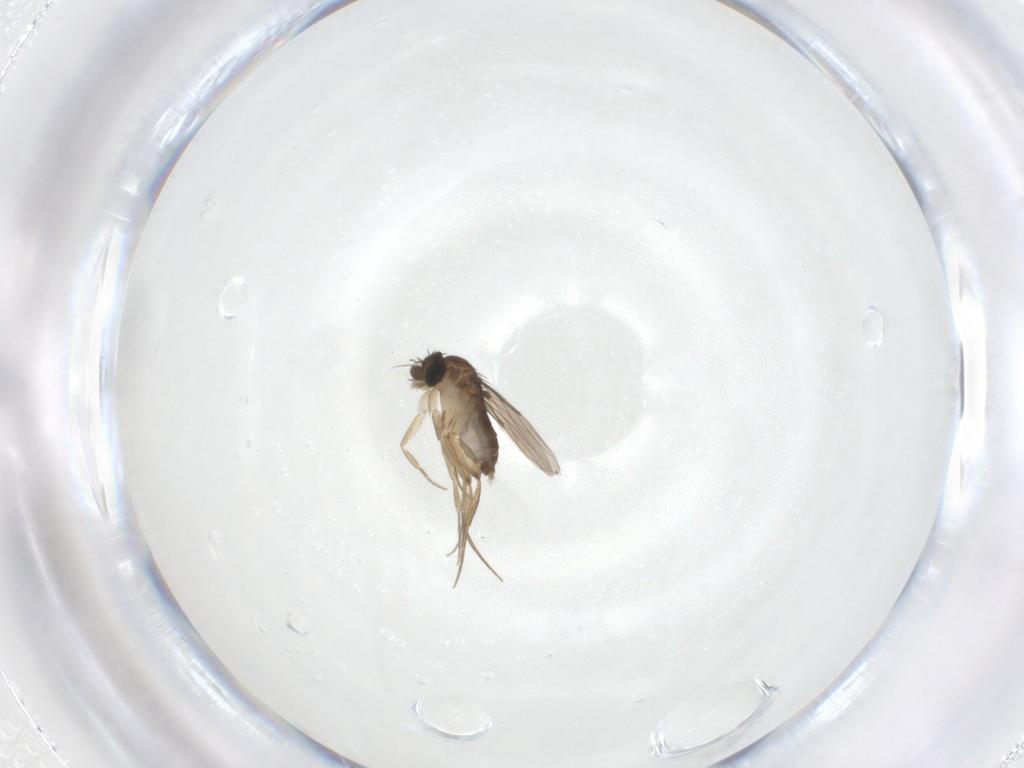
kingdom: Animalia
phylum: Arthropoda
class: Insecta
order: Diptera
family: Phoridae
